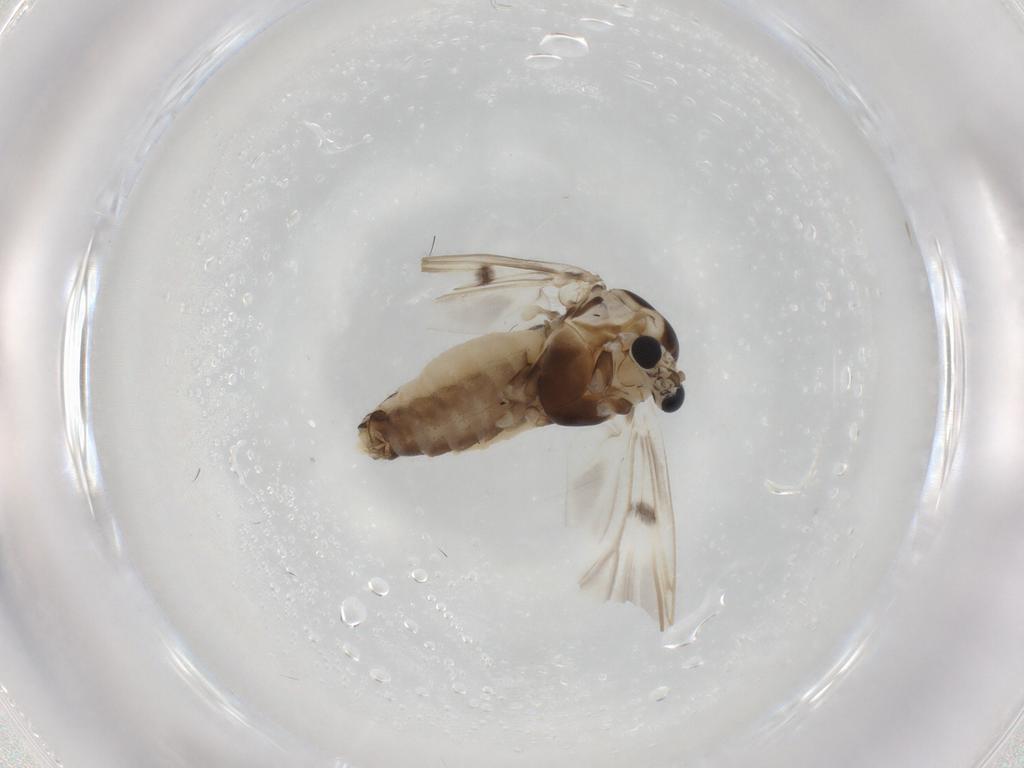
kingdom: Animalia
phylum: Arthropoda
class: Insecta
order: Diptera
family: Chironomidae
